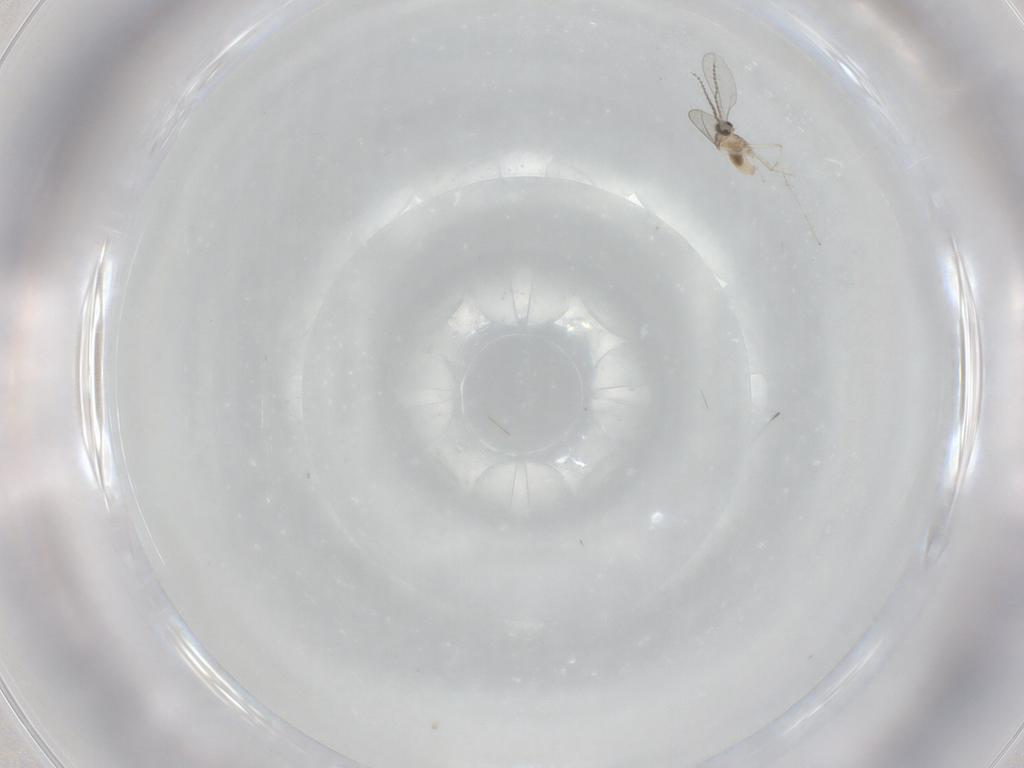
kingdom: Animalia
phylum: Arthropoda
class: Insecta
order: Diptera
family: Cecidomyiidae
